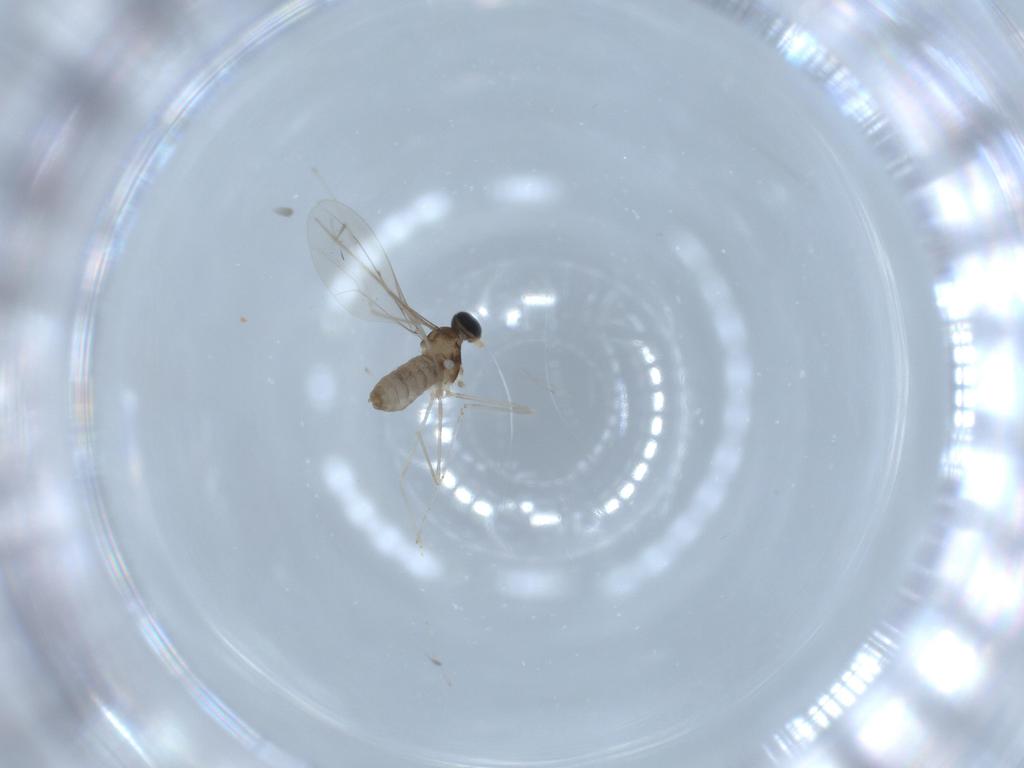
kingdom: Animalia
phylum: Arthropoda
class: Insecta
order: Diptera
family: Cecidomyiidae
